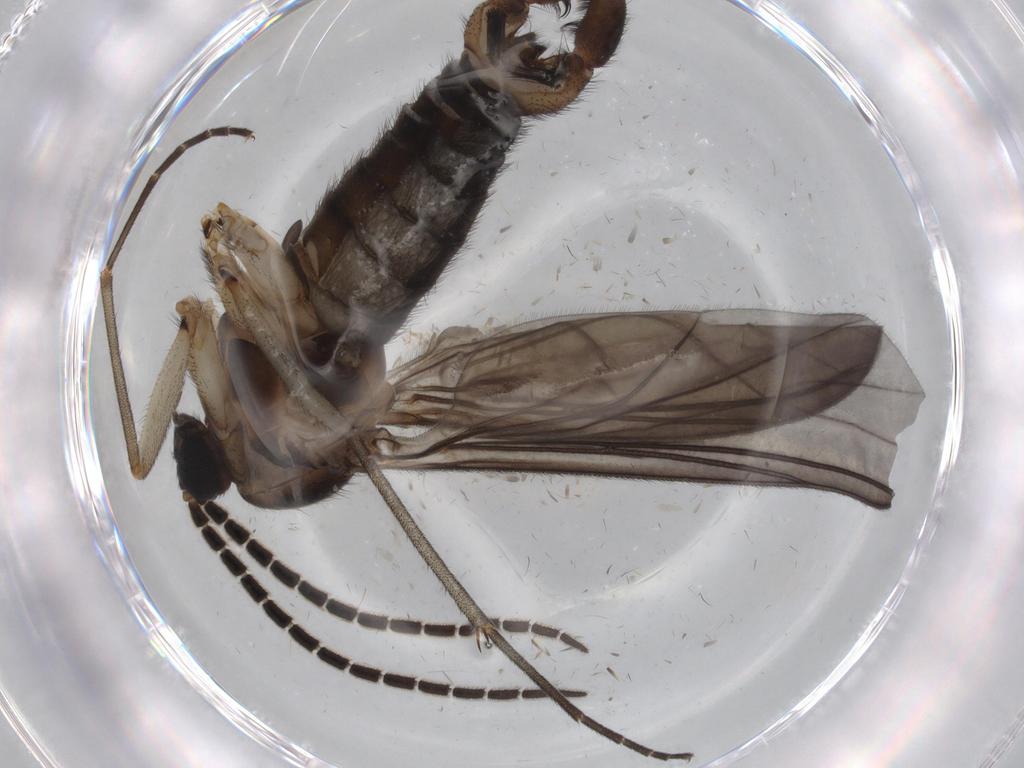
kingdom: Animalia
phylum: Arthropoda
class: Insecta
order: Diptera
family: Sciaridae
